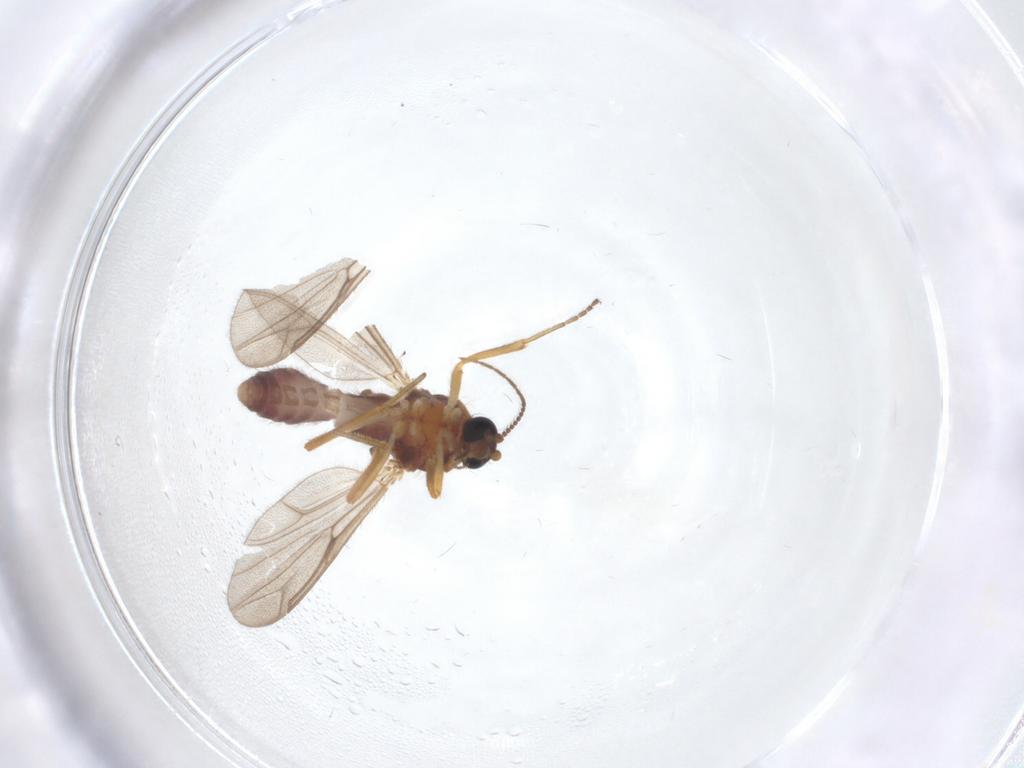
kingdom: Animalia
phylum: Arthropoda
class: Insecta
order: Diptera
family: Ceratopogonidae
